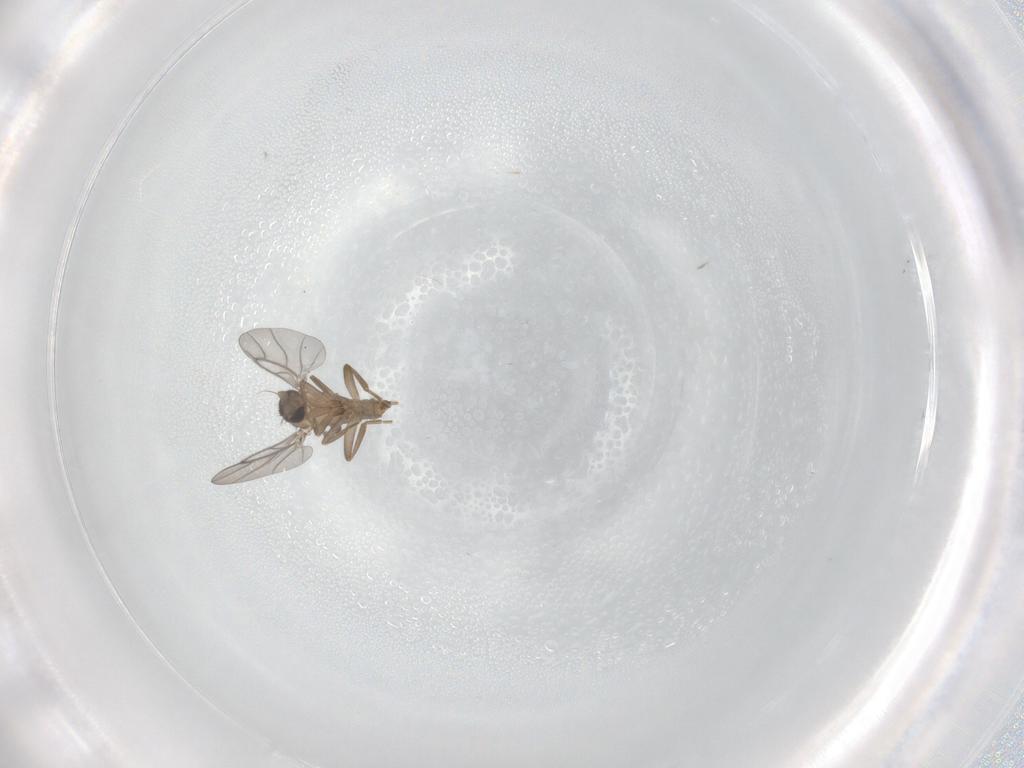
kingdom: Animalia
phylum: Arthropoda
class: Insecta
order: Diptera
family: Phoridae
